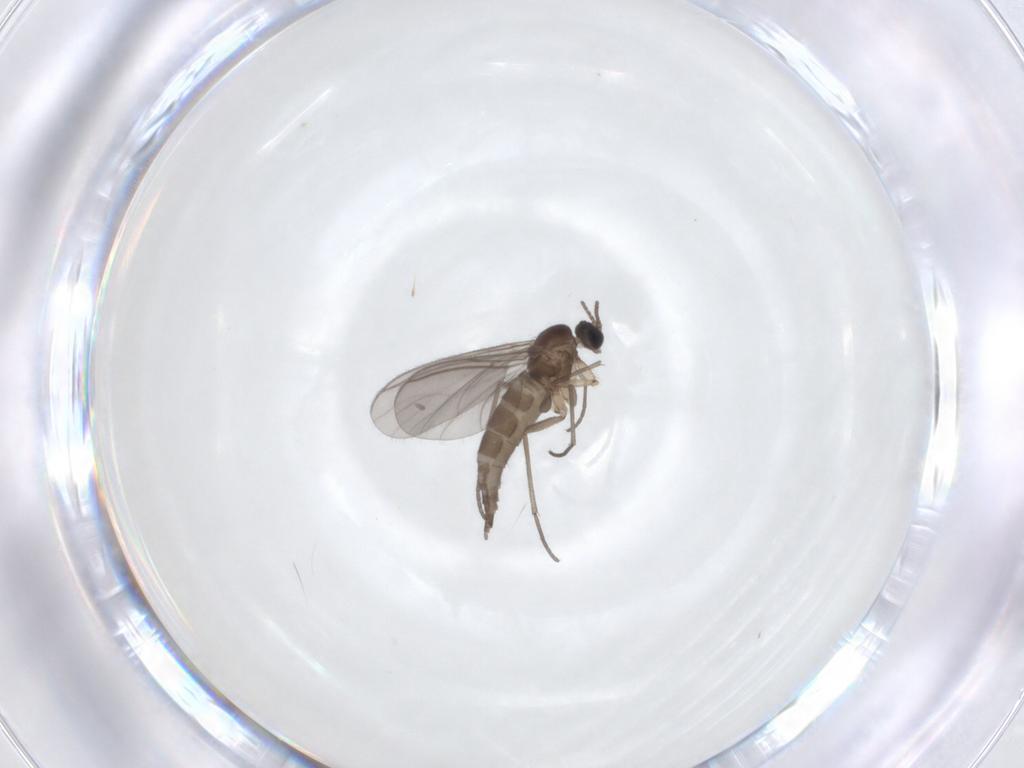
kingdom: Animalia
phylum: Arthropoda
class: Insecta
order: Diptera
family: Sciaridae
